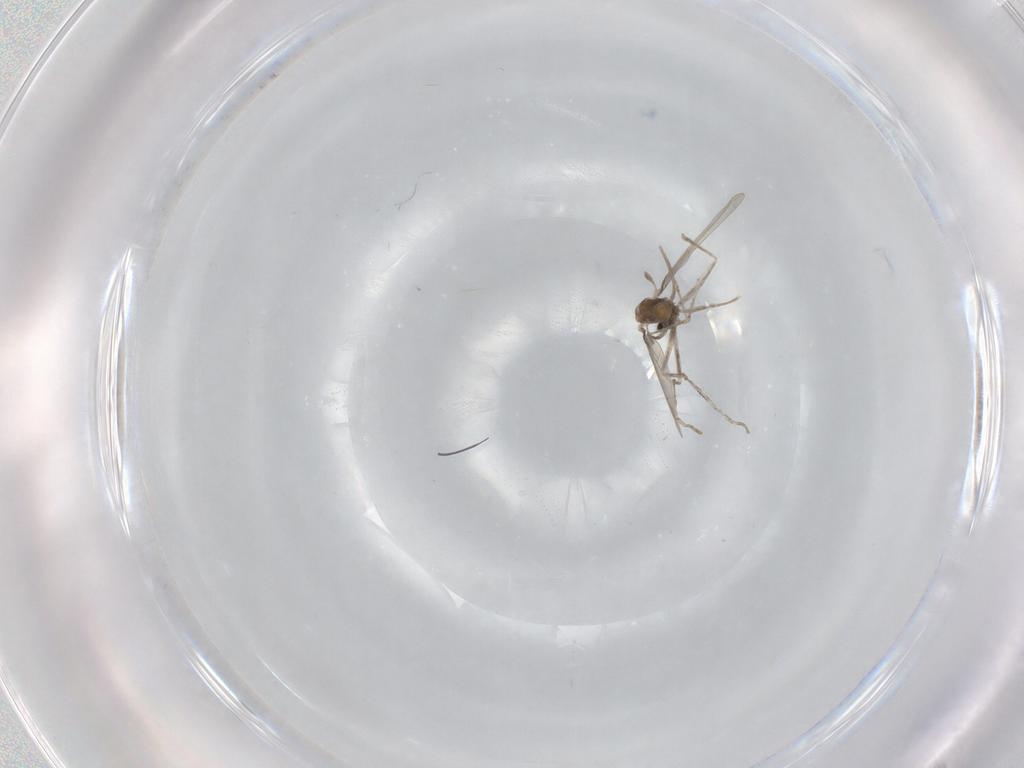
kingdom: Animalia
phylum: Arthropoda
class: Insecta
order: Diptera
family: Cecidomyiidae
